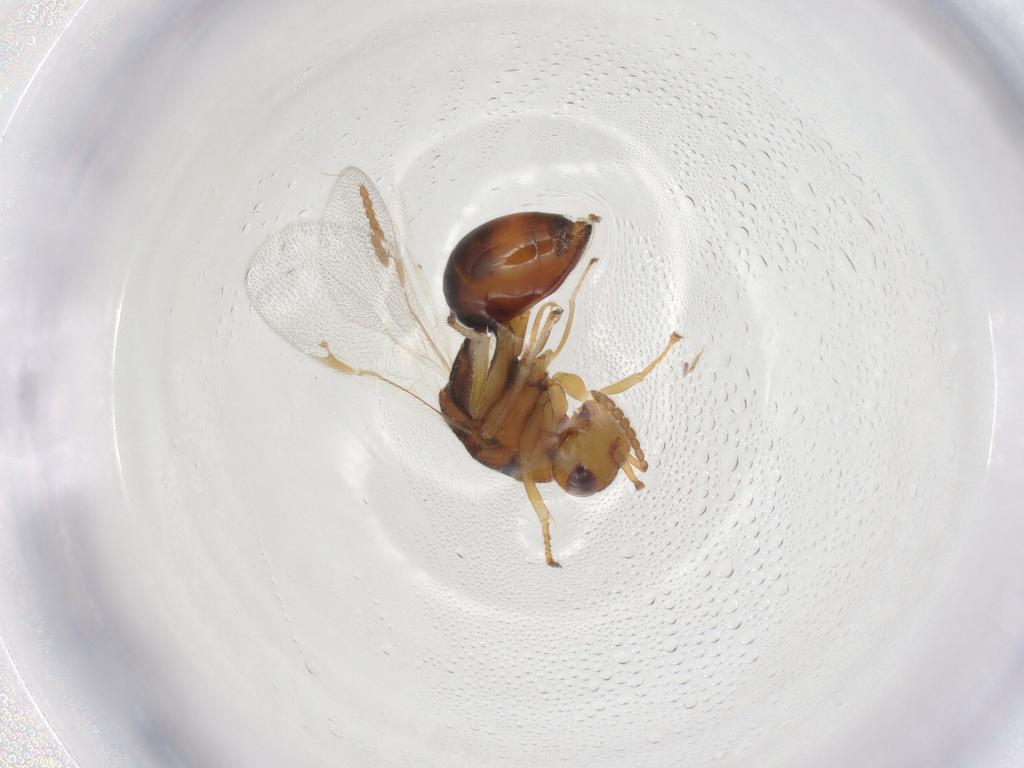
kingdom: Animalia
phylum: Arthropoda
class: Insecta
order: Hymenoptera
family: Eurytomidae
